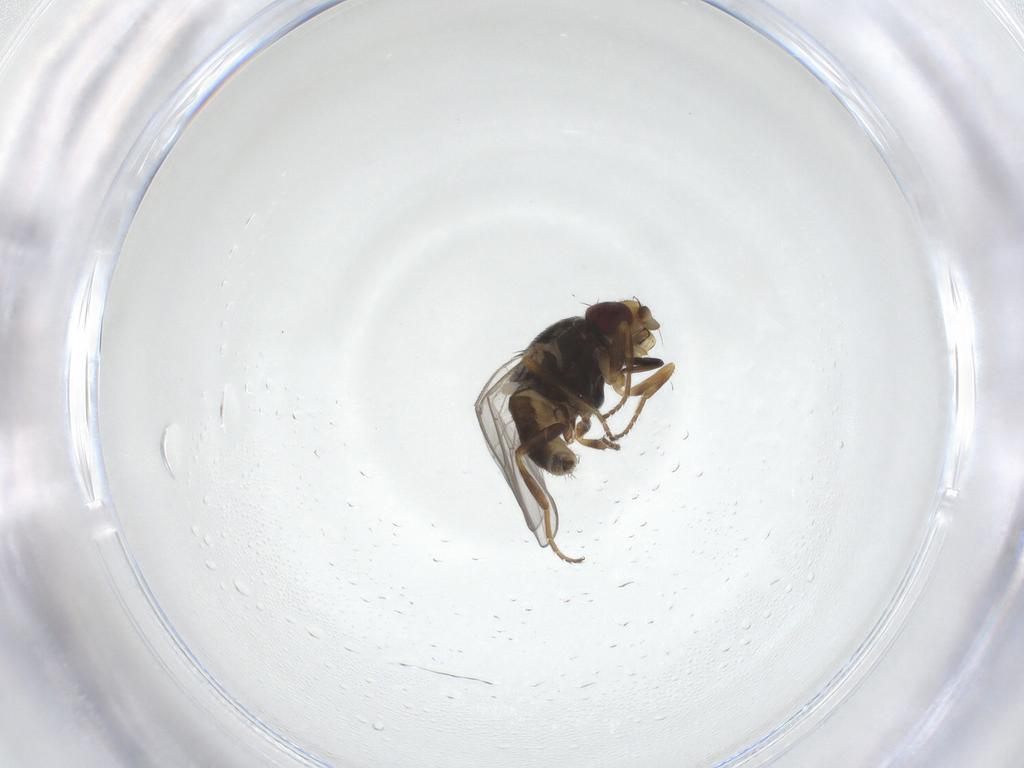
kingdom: Animalia
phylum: Arthropoda
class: Insecta
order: Diptera
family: Chloropidae
